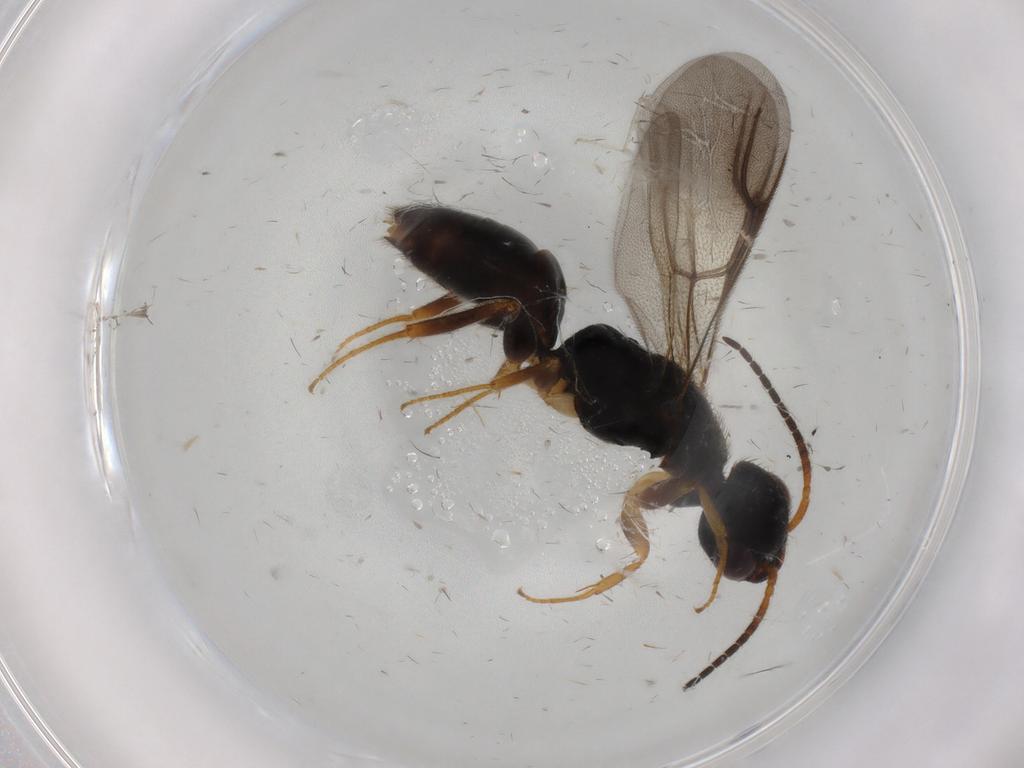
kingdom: Animalia
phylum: Arthropoda
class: Insecta
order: Hymenoptera
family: Bethylidae
